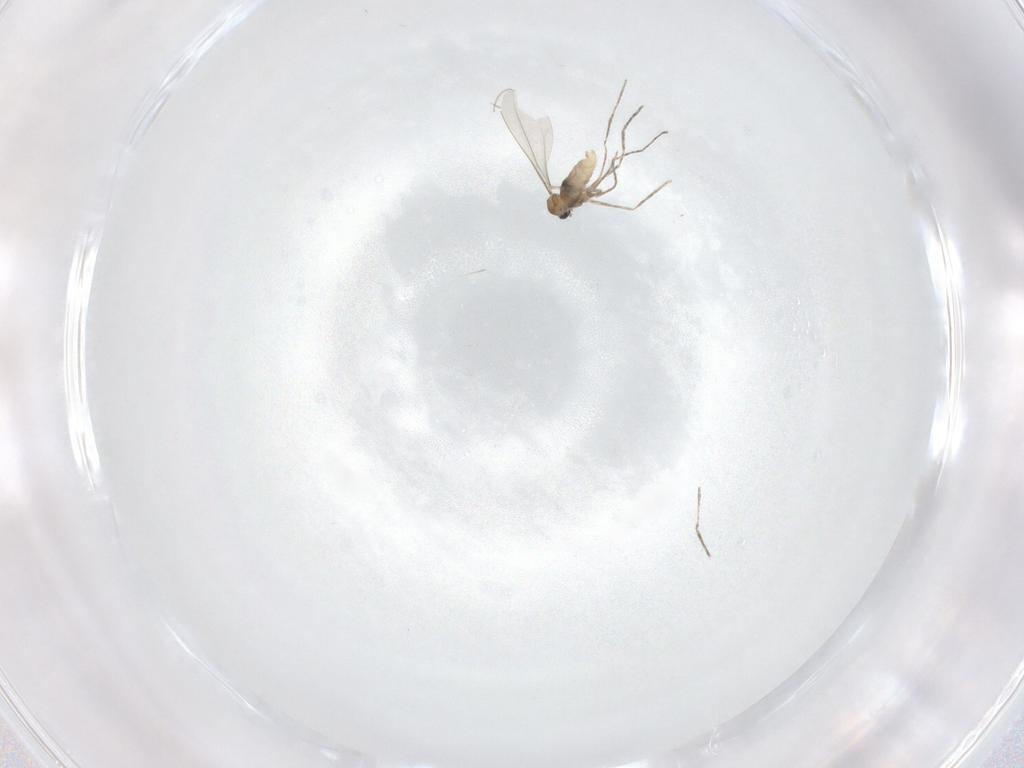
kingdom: Animalia
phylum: Arthropoda
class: Insecta
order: Diptera
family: Cecidomyiidae
